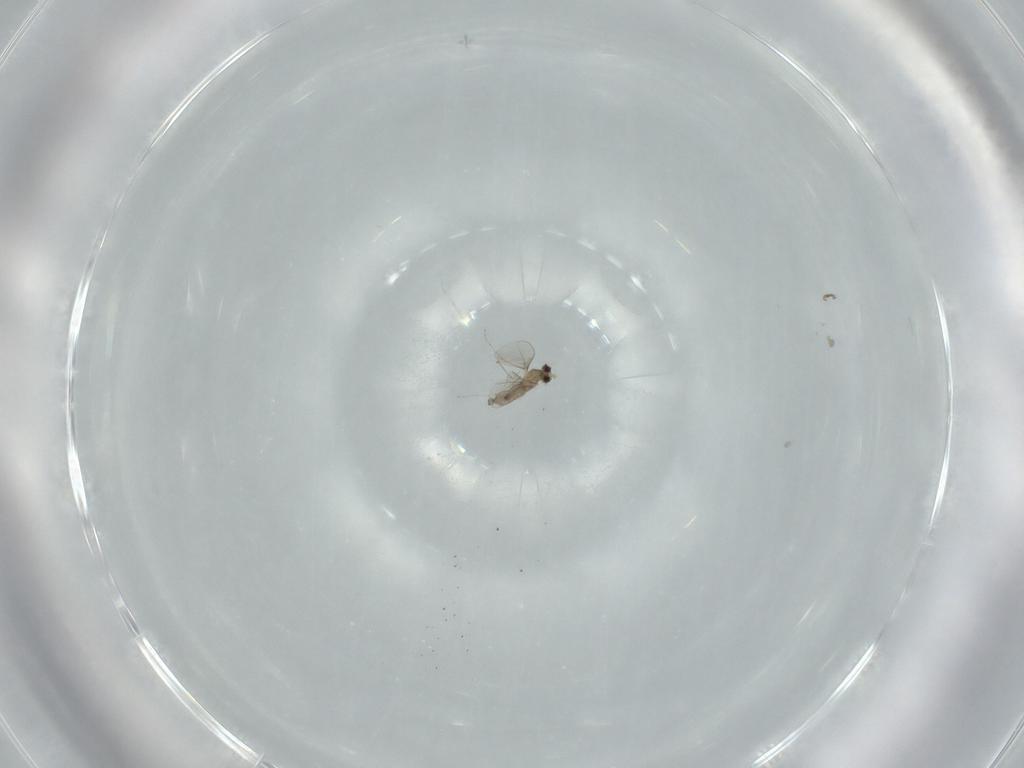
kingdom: Animalia
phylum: Arthropoda
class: Insecta
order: Diptera
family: Cecidomyiidae
